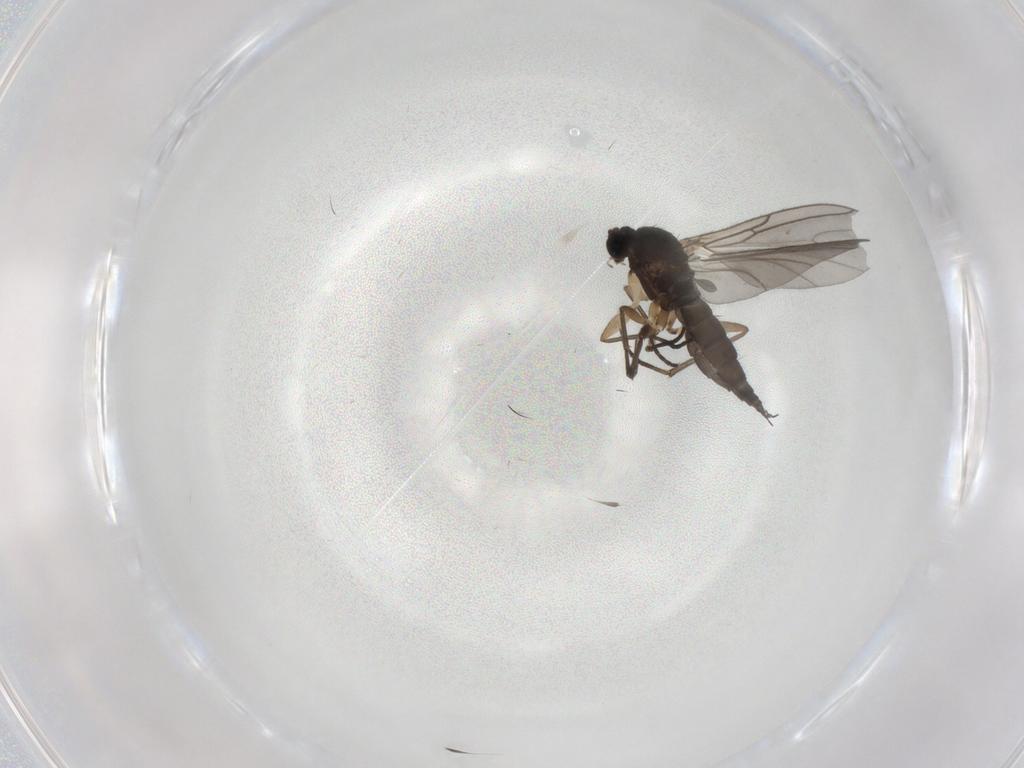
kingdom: Animalia
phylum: Arthropoda
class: Insecta
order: Diptera
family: Sciaridae
